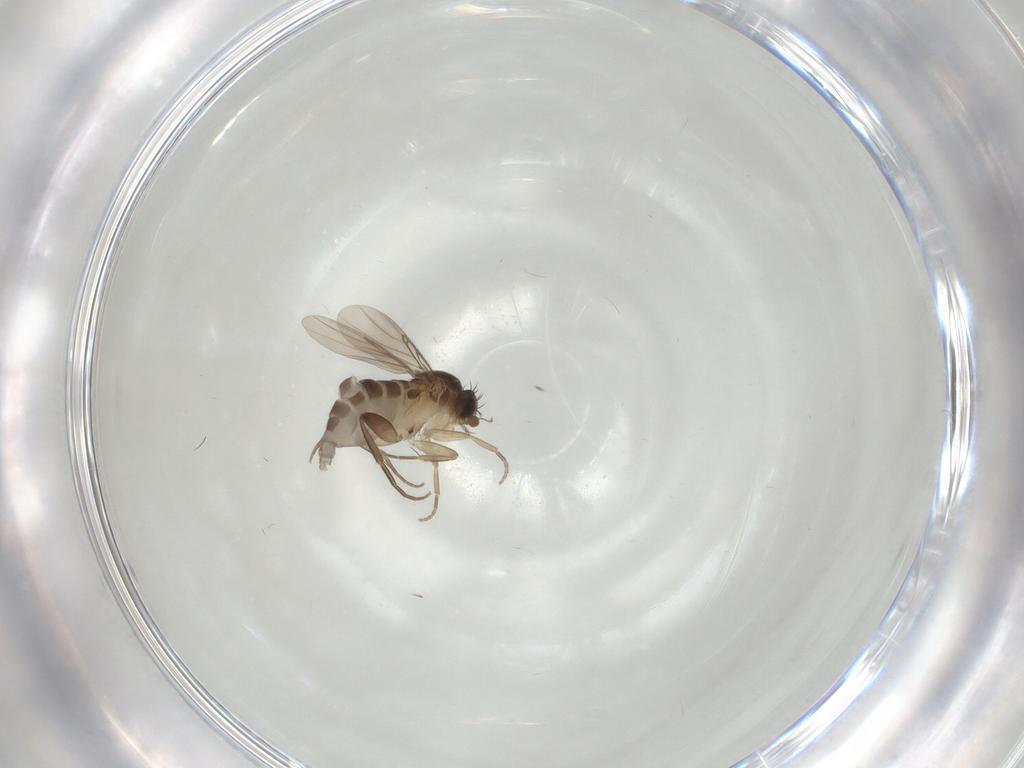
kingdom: Animalia
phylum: Arthropoda
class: Insecta
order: Diptera
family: Phoridae
